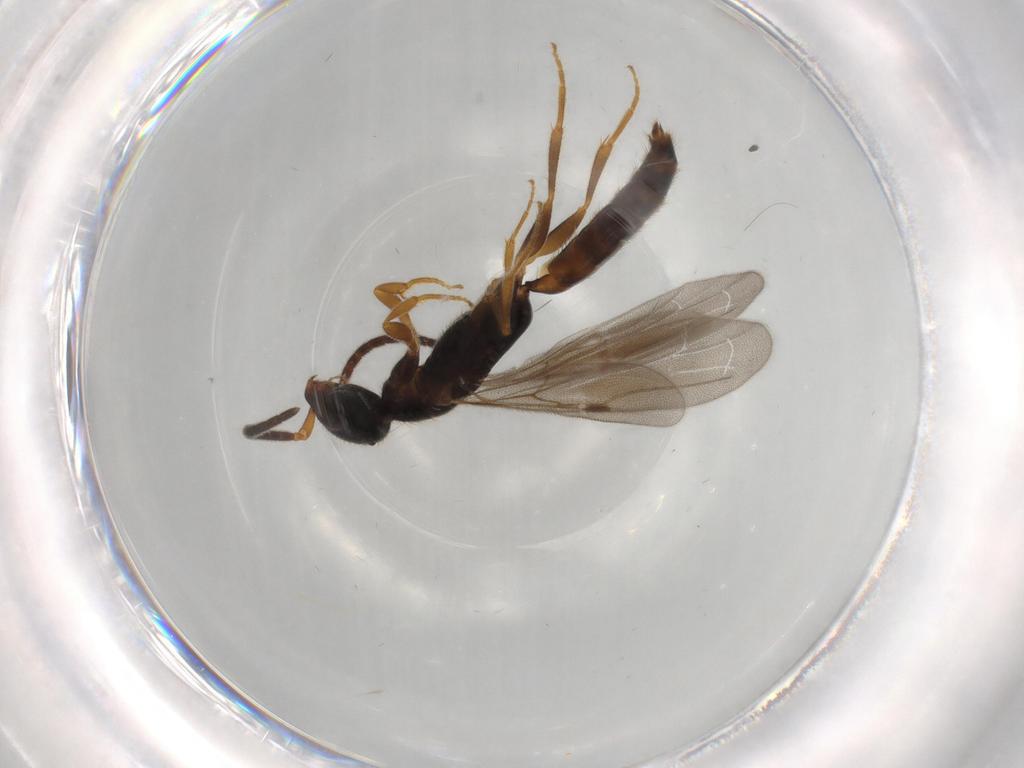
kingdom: Animalia
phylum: Arthropoda
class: Insecta
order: Hymenoptera
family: Bethylidae
